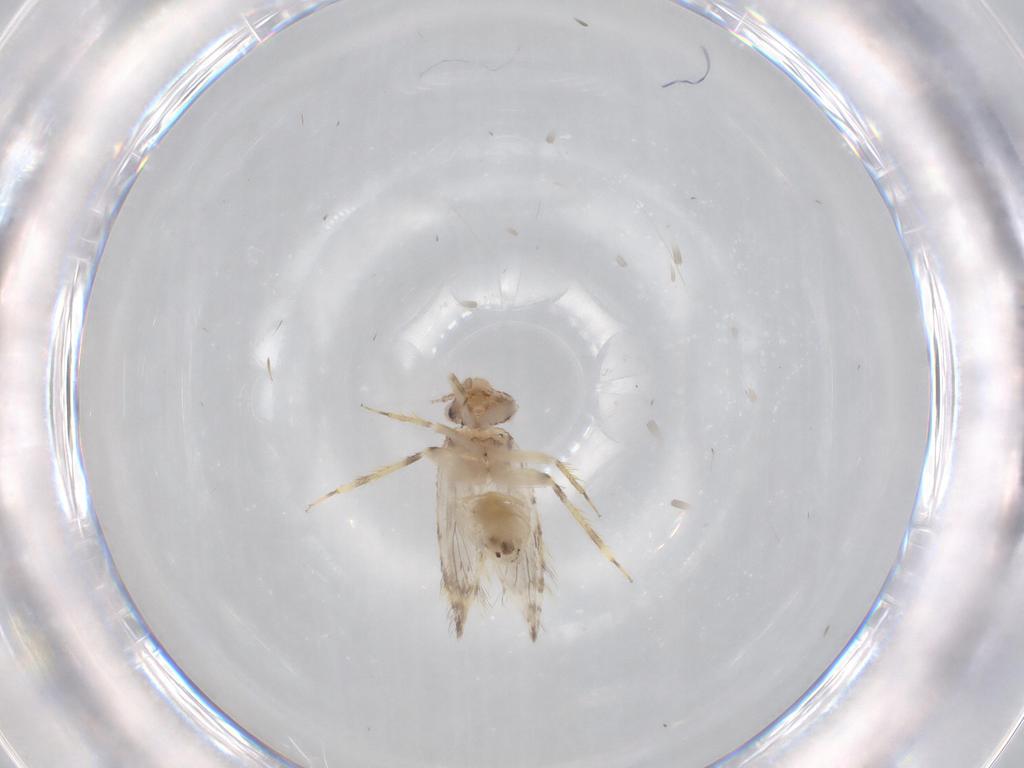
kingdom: Animalia
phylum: Arthropoda
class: Insecta
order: Psocodea
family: Lepidopsocidae
